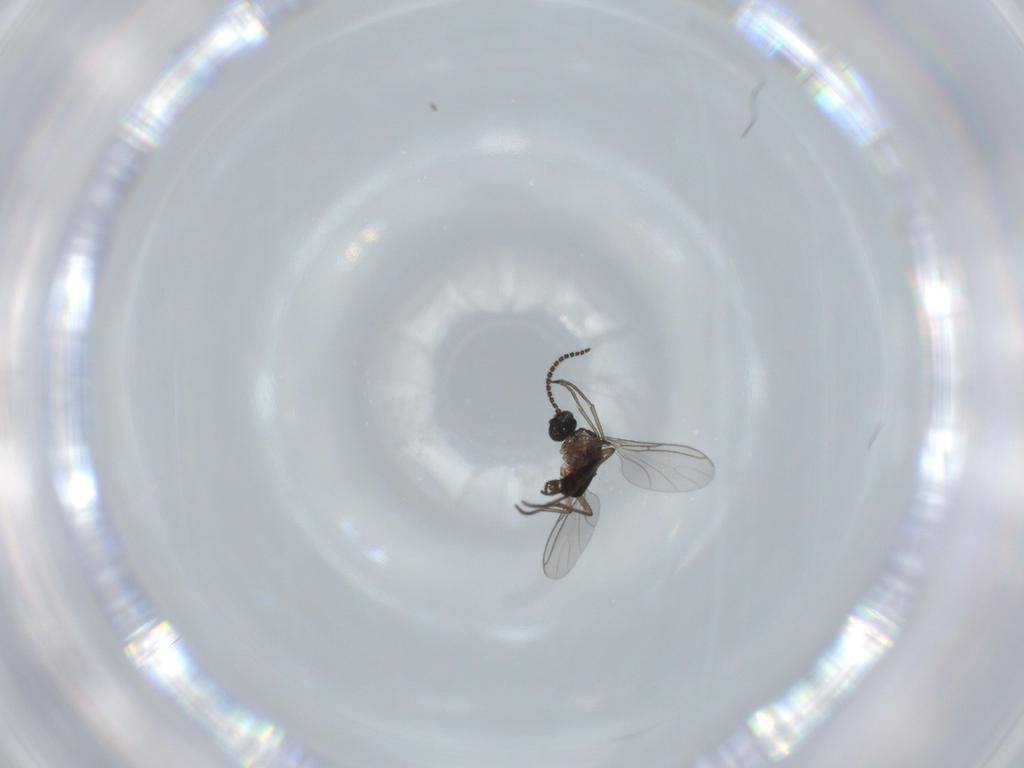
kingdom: Animalia
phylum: Arthropoda
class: Insecta
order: Diptera
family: Sciaridae
